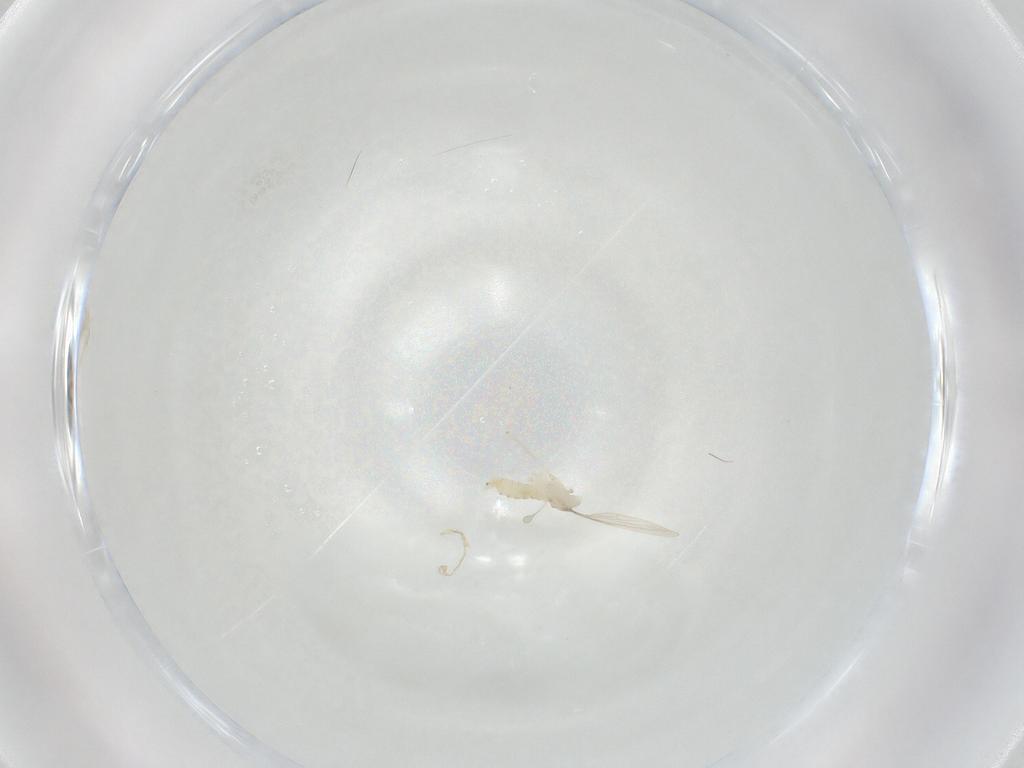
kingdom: Animalia
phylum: Arthropoda
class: Insecta
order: Diptera
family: Cecidomyiidae
